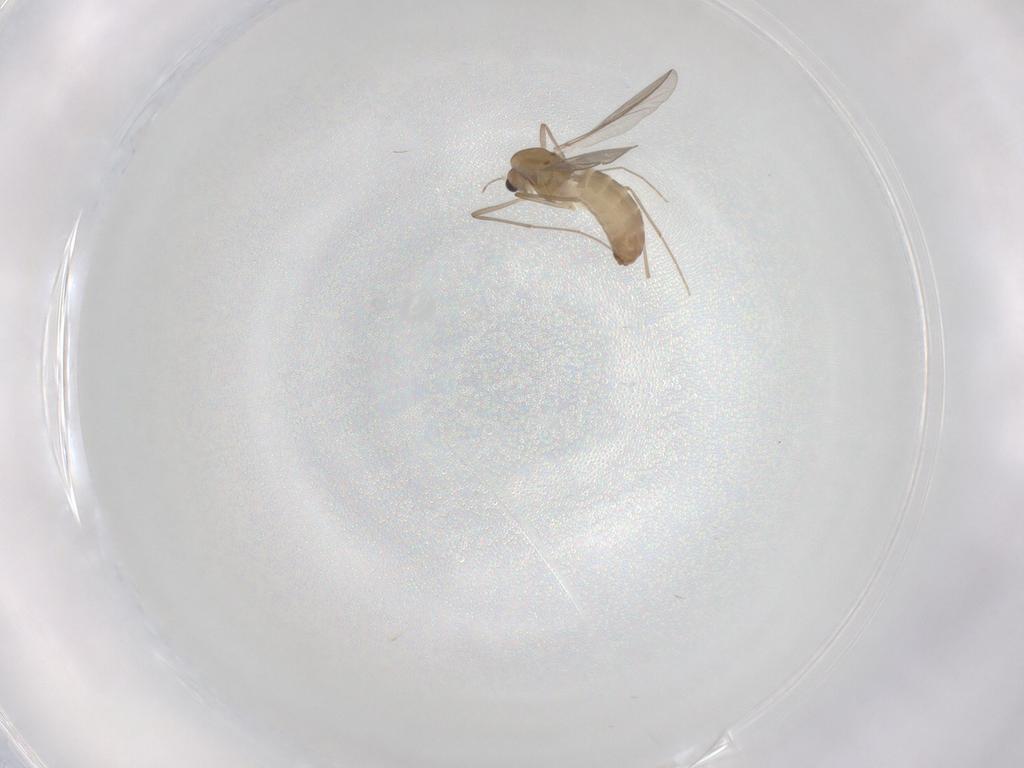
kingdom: Animalia
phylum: Arthropoda
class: Insecta
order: Diptera
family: Chironomidae
